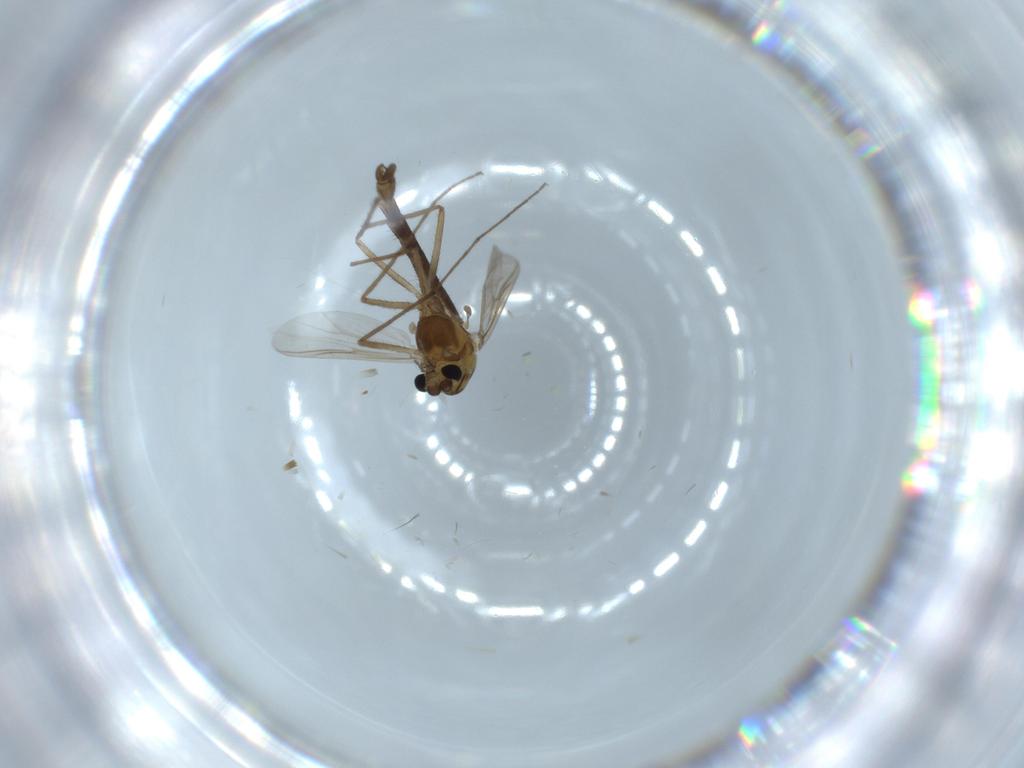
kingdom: Animalia
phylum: Arthropoda
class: Insecta
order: Diptera
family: Chironomidae
